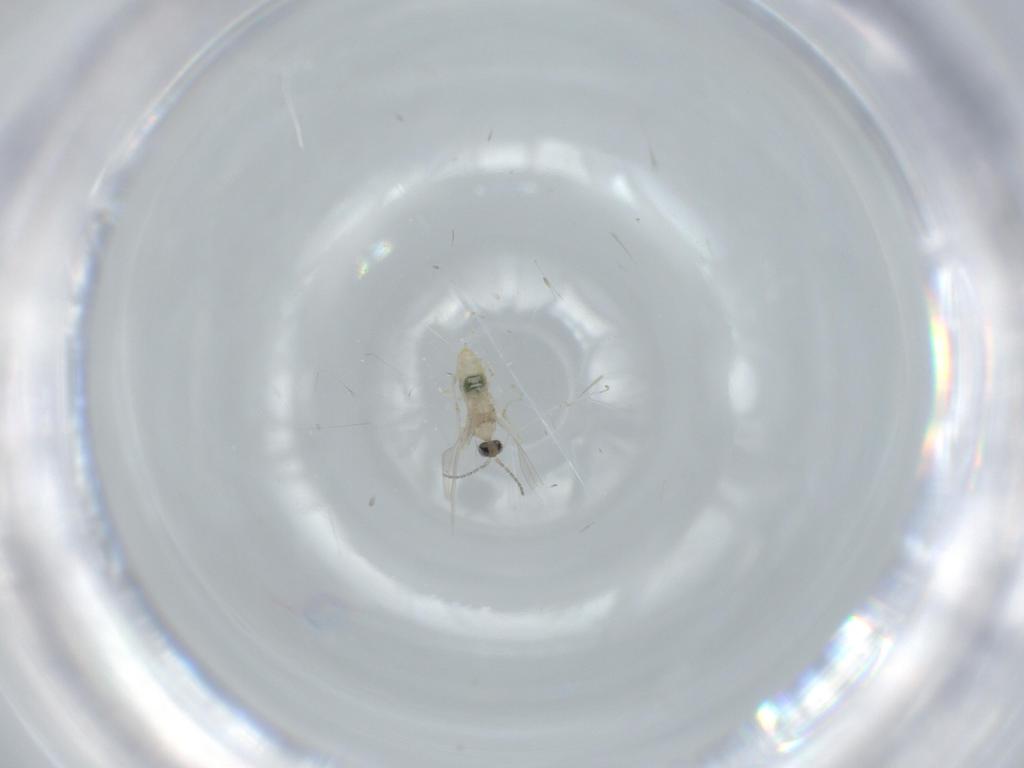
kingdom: Animalia
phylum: Arthropoda
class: Insecta
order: Diptera
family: Cecidomyiidae
